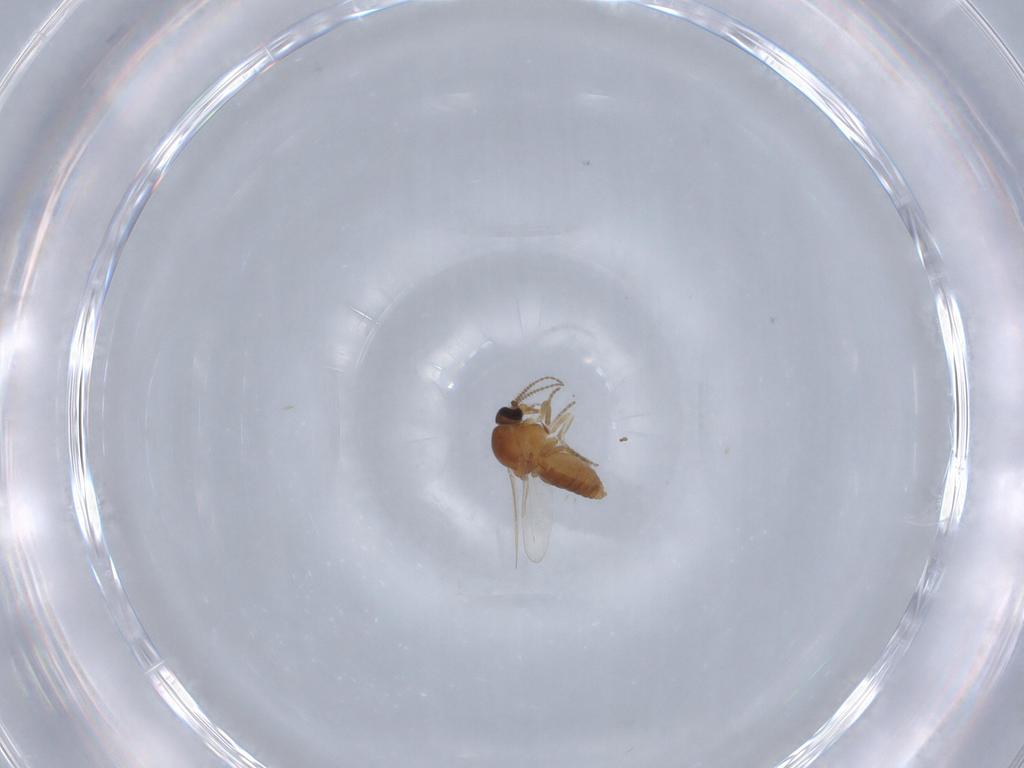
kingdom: Animalia
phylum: Arthropoda
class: Insecta
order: Diptera
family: Ceratopogonidae
